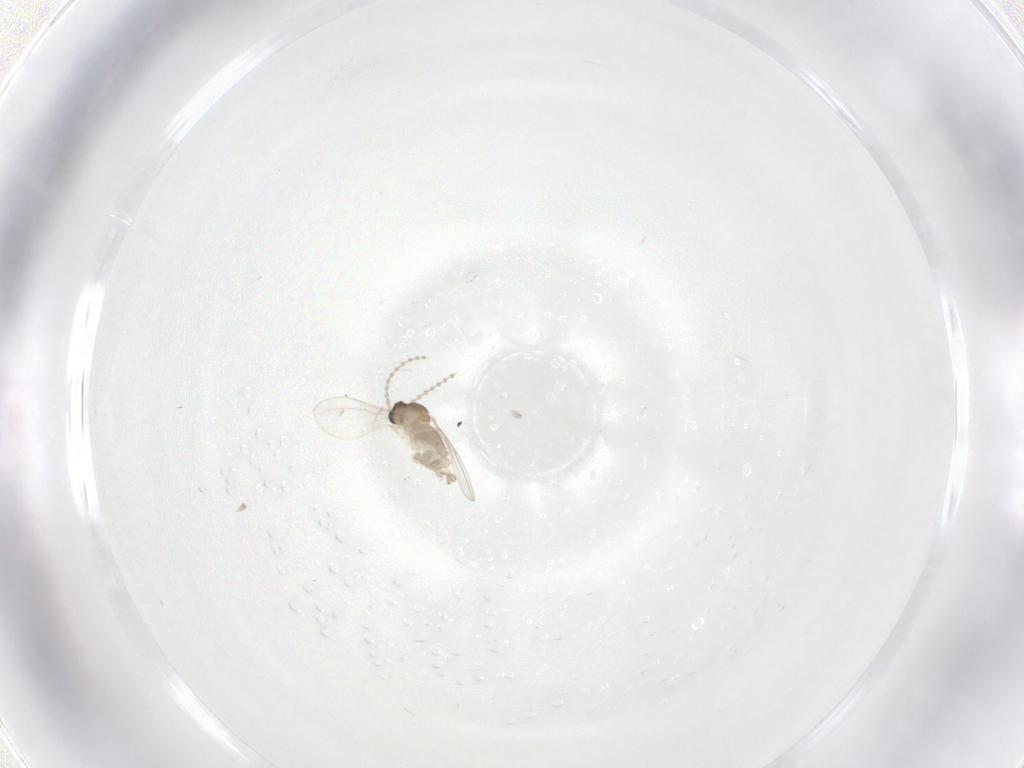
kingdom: Animalia
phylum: Arthropoda
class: Insecta
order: Diptera
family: Cecidomyiidae
